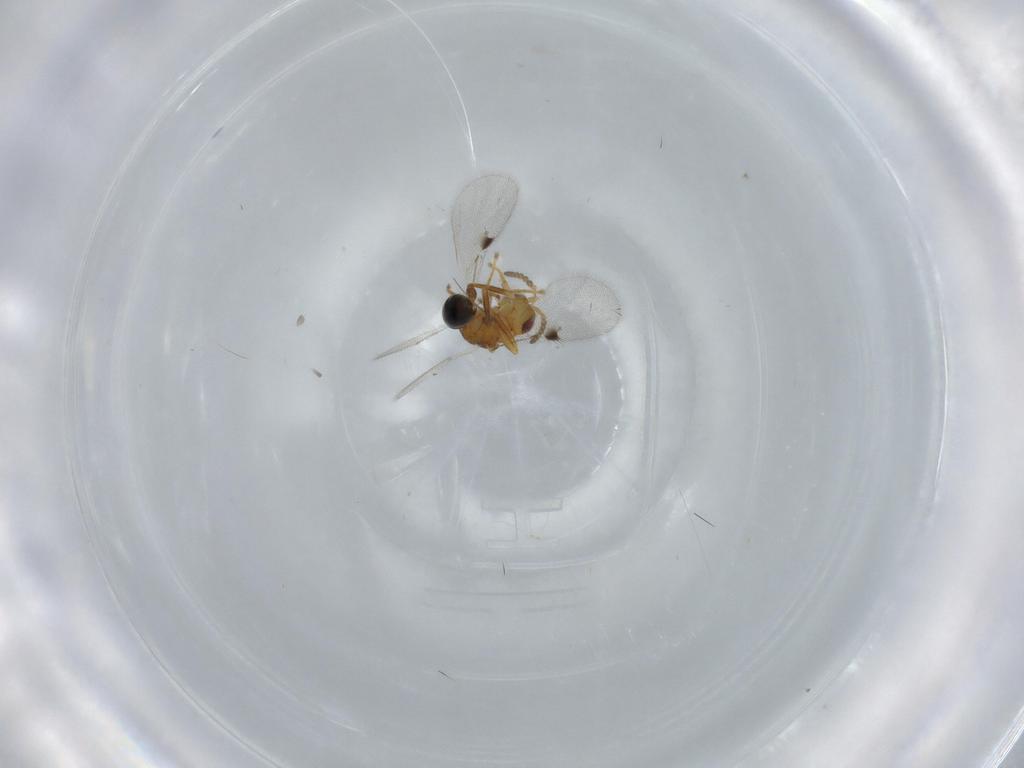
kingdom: Animalia
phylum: Arthropoda
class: Insecta
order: Hymenoptera
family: Eurytomidae
